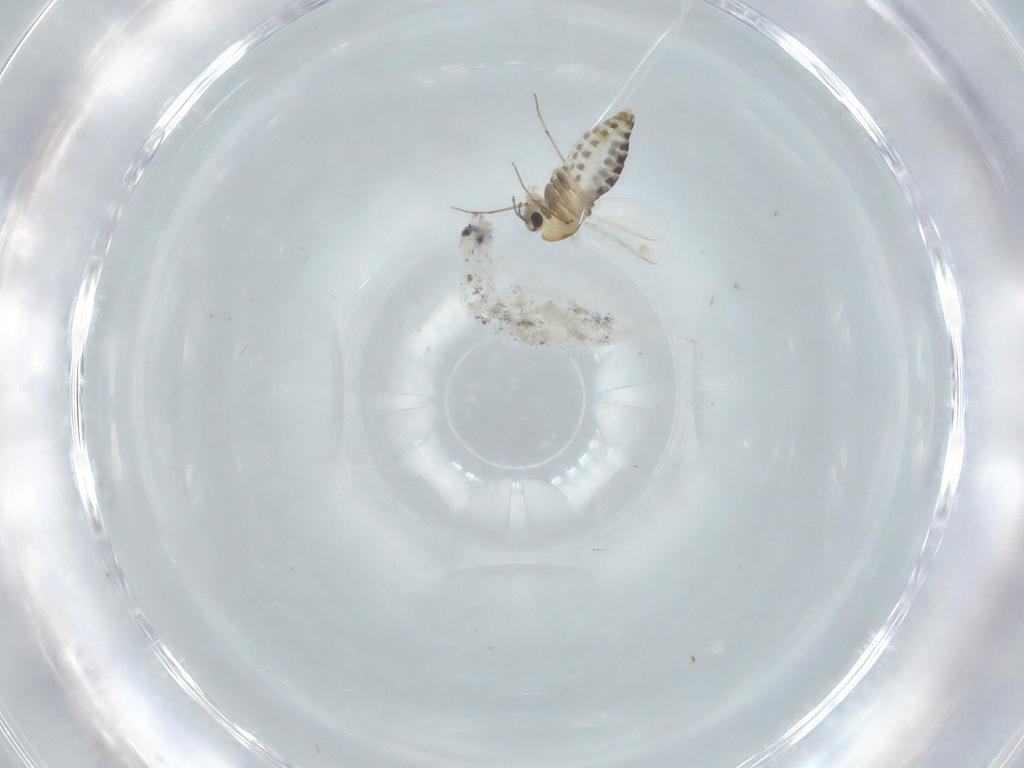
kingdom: Animalia
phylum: Arthropoda
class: Collembola
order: Entomobryomorpha
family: Entomobryidae
